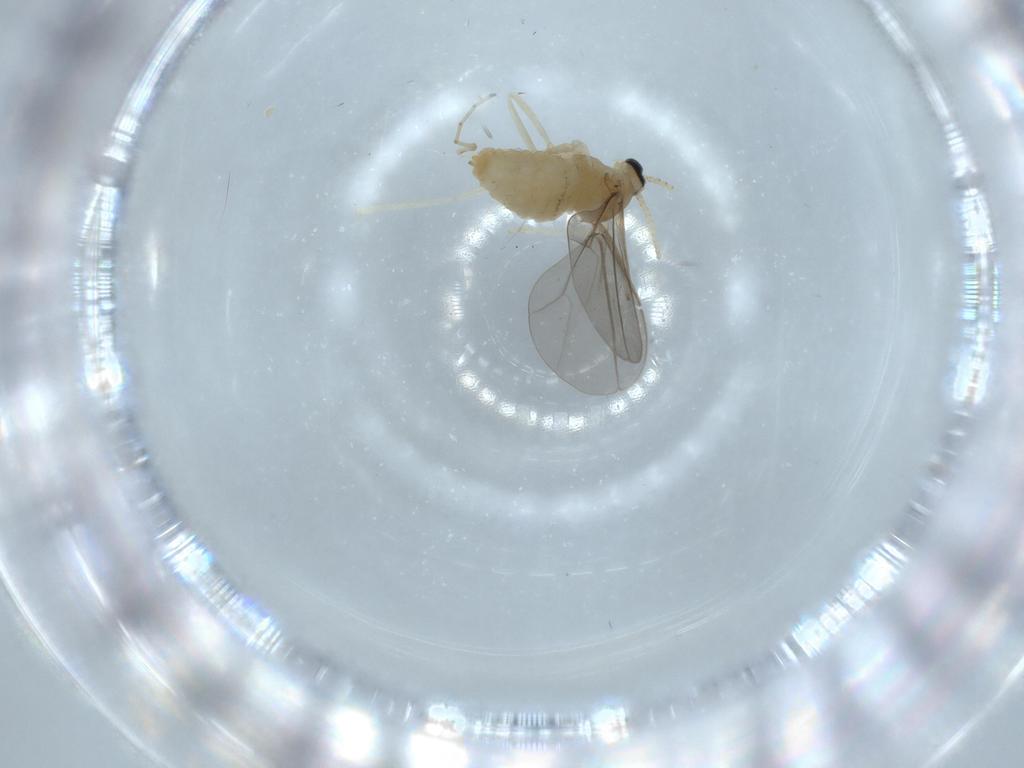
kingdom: Animalia
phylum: Arthropoda
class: Insecta
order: Diptera
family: Cecidomyiidae
